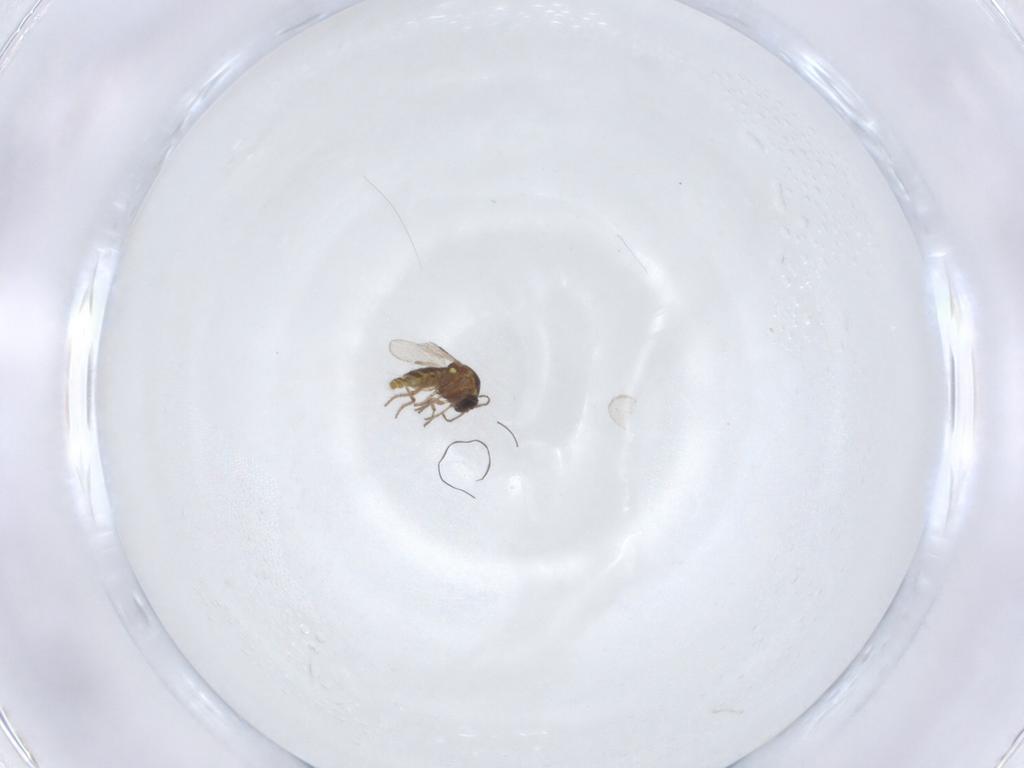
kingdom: Animalia
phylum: Arthropoda
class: Insecta
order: Diptera
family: Ceratopogonidae
